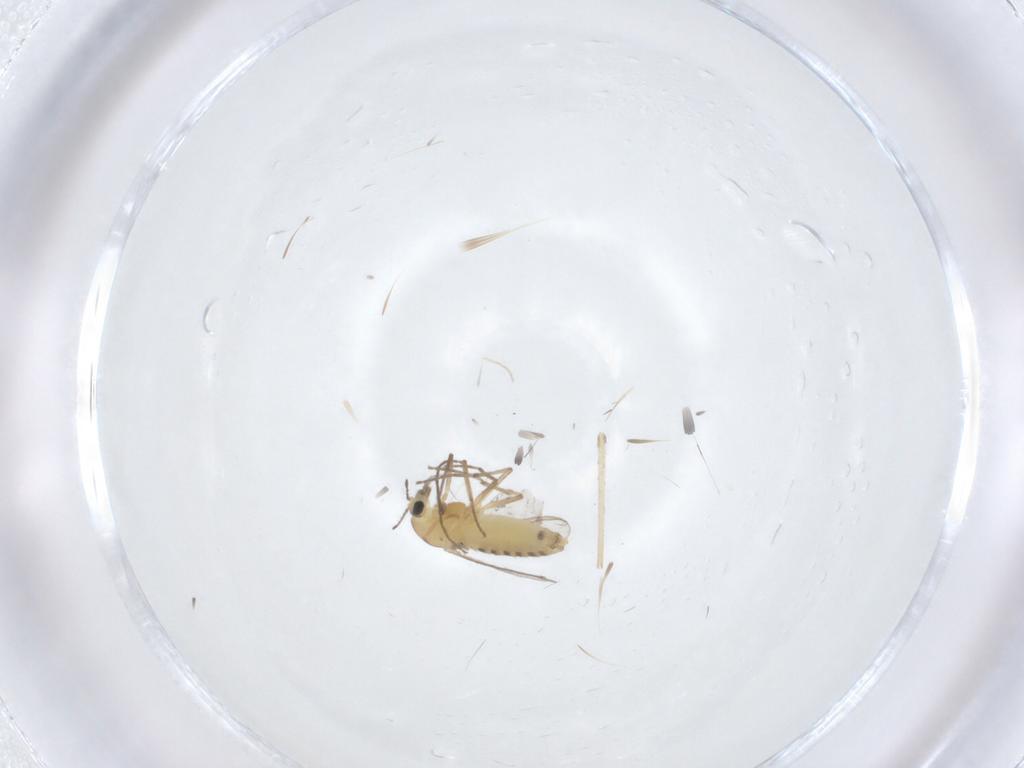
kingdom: Animalia
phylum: Arthropoda
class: Insecta
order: Diptera
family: Chironomidae
